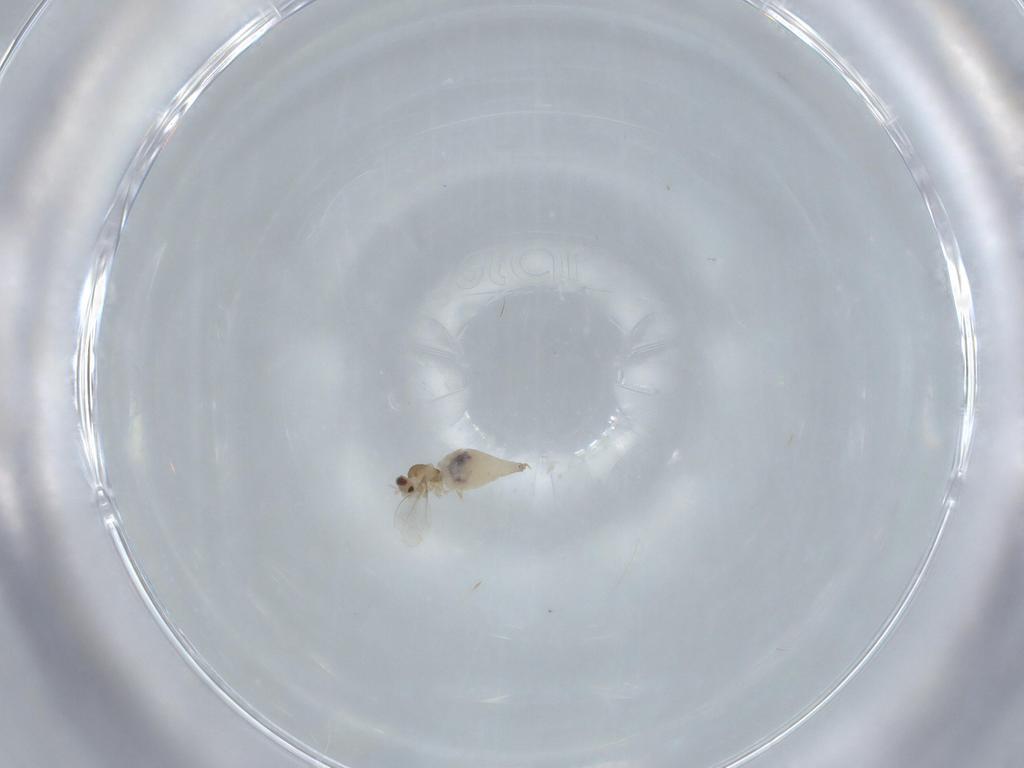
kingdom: Animalia
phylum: Arthropoda
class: Insecta
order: Diptera
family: Cecidomyiidae
